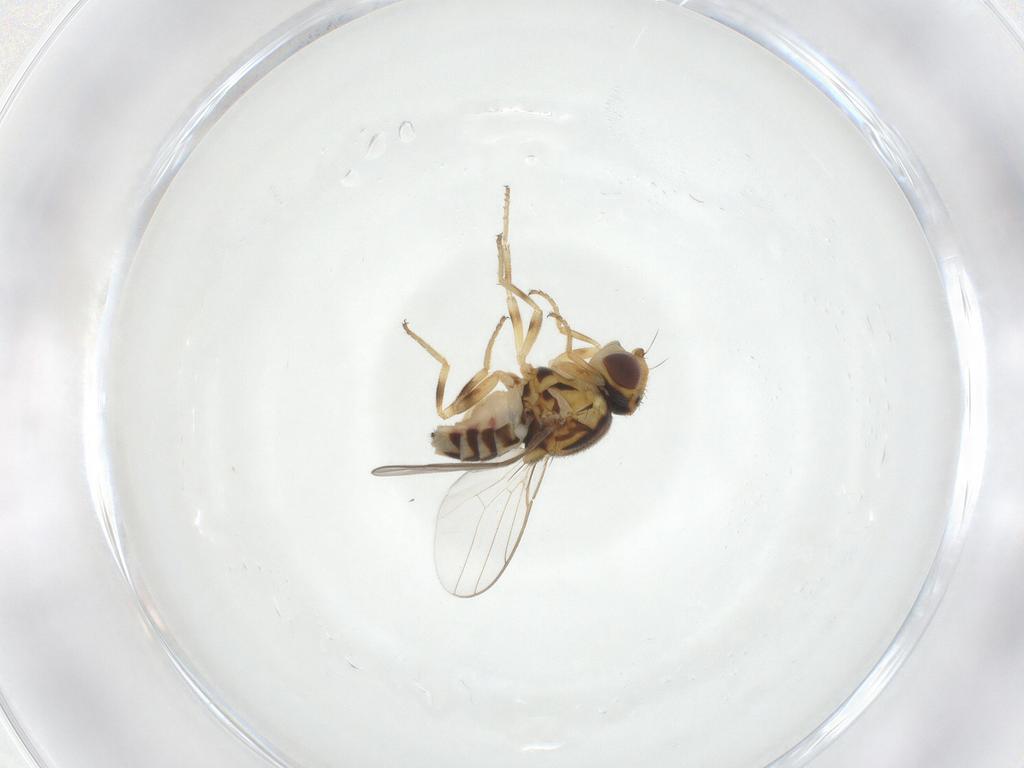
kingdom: Animalia
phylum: Arthropoda
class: Insecta
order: Diptera
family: Chloropidae
